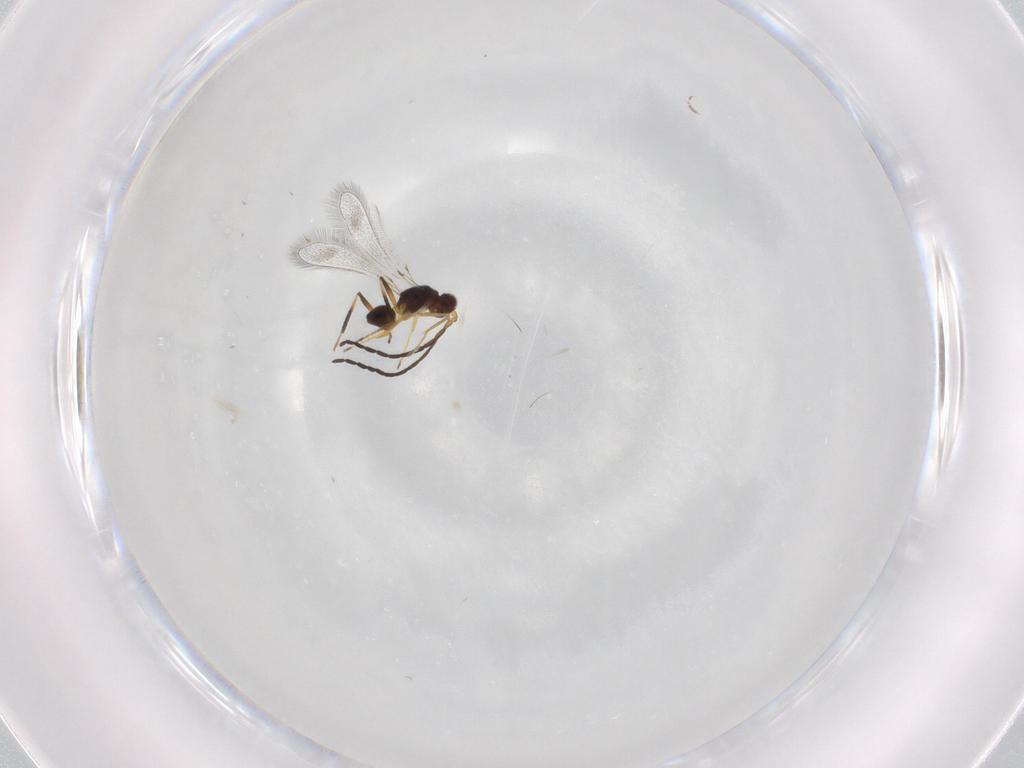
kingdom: Animalia
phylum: Arthropoda
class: Insecta
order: Hymenoptera
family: Mymaridae
